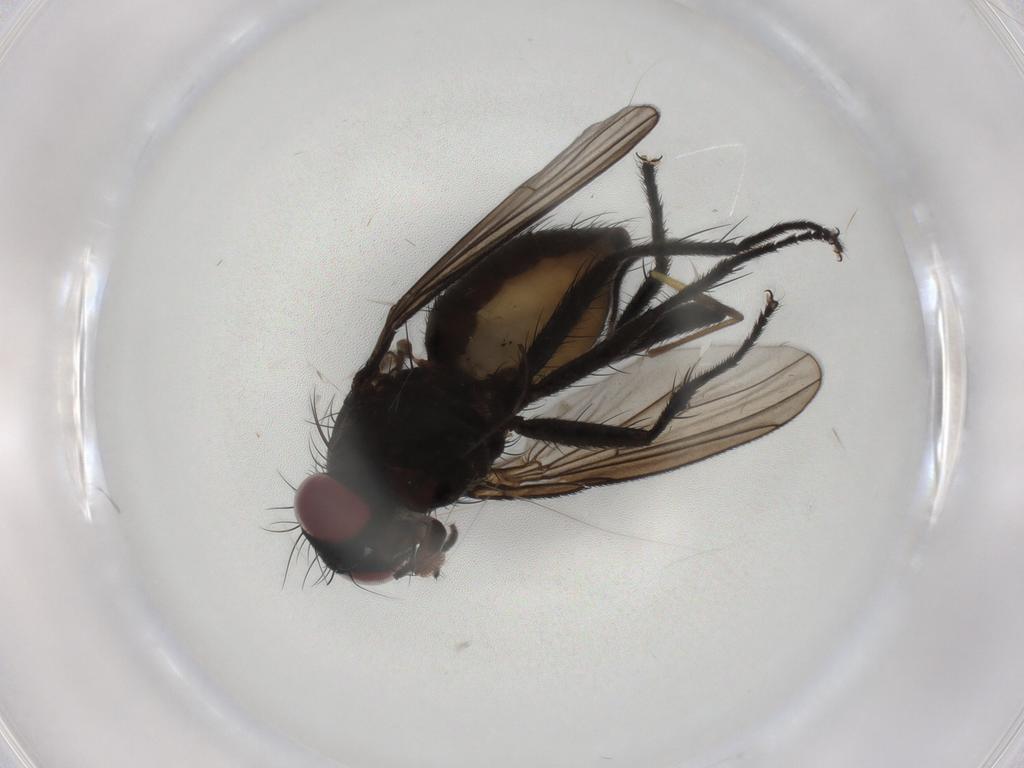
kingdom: Animalia
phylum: Arthropoda
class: Insecta
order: Diptera
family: Muscidae
